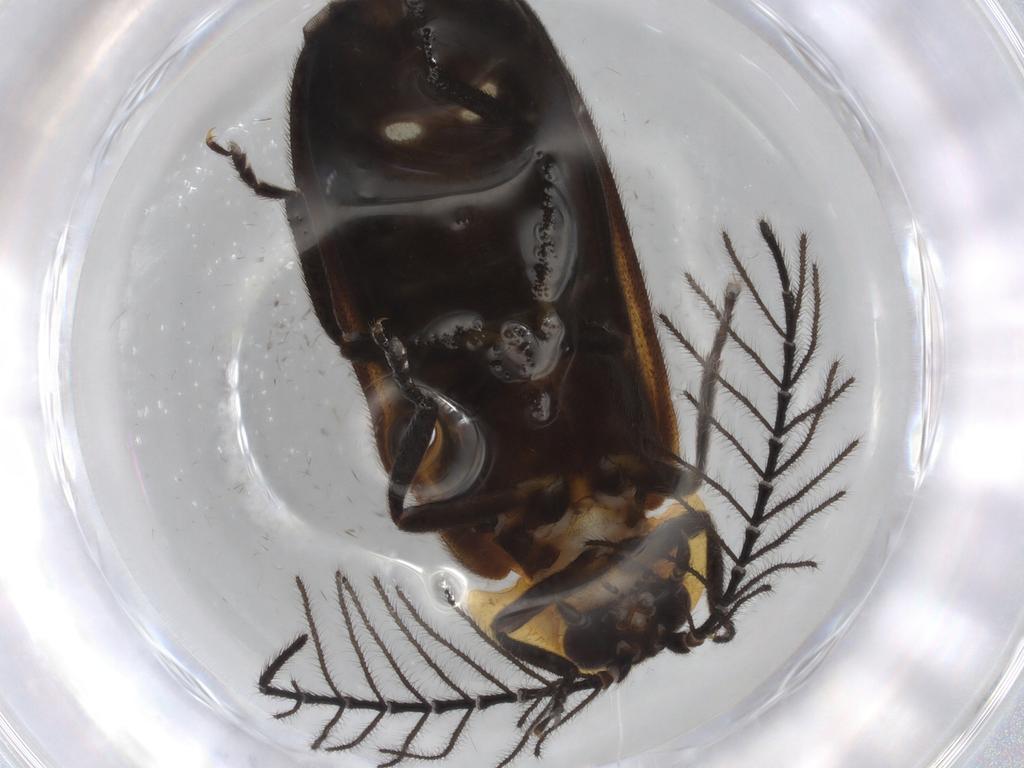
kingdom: Animalia
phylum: Arthropoda
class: Insecta
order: Coleoptera
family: Lampyridae
